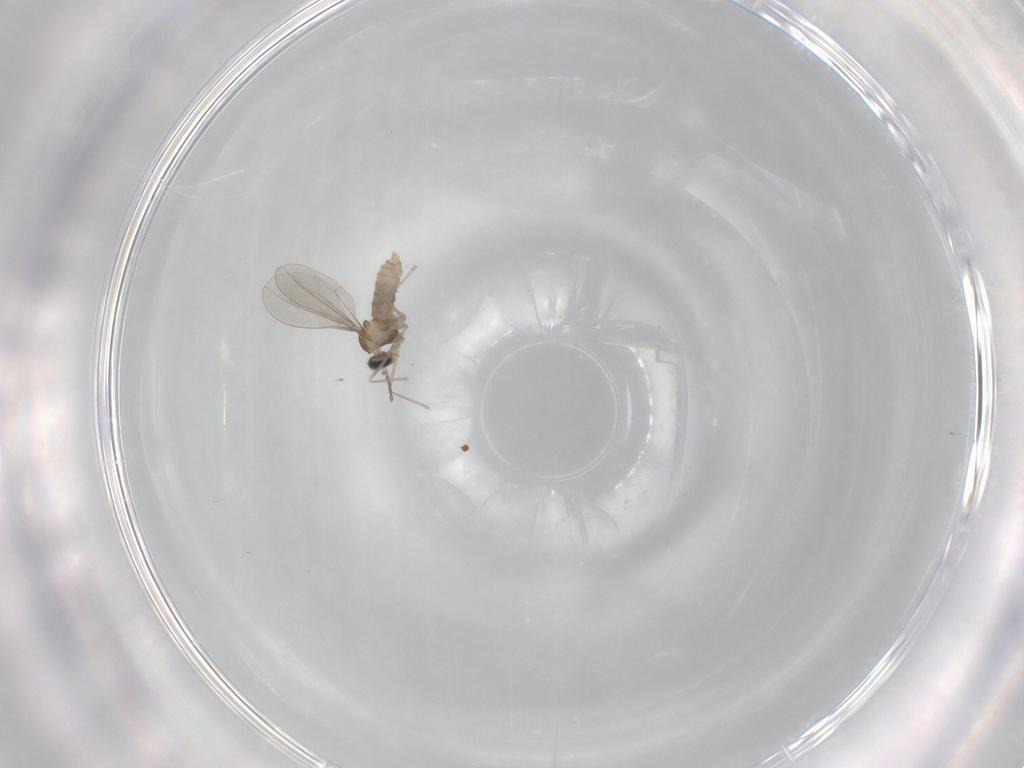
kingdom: Animalia
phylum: Arthropoda
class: Insecta
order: Diptera
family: Cecidomyiidae
